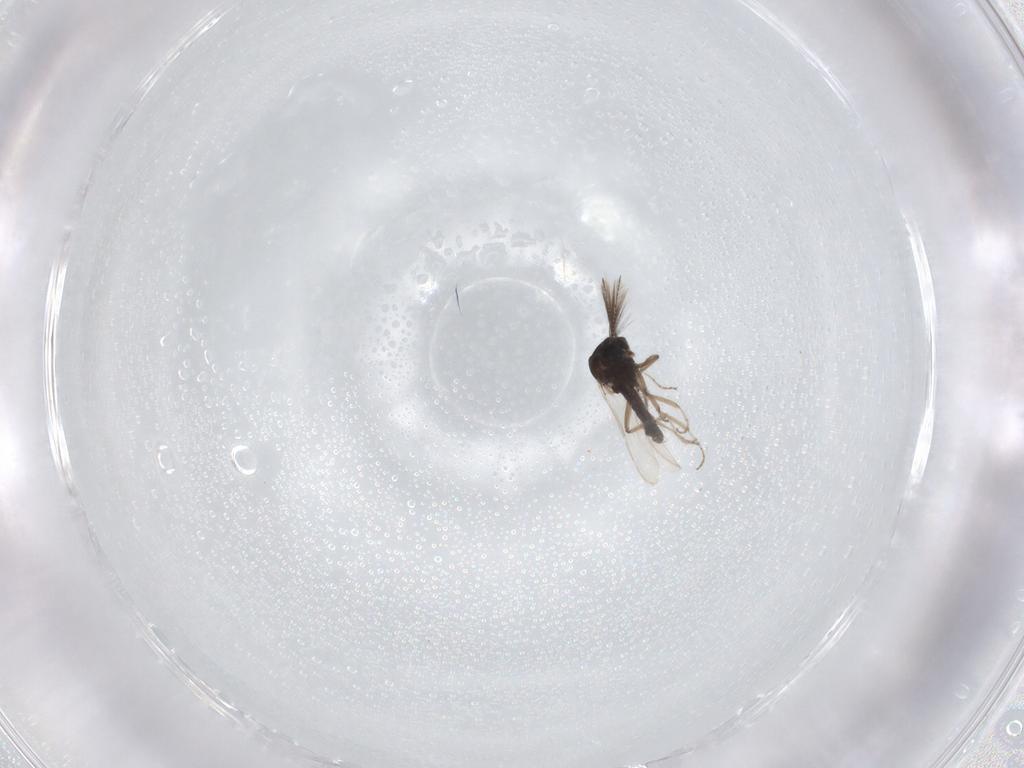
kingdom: Animalia
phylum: Arthropoda
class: Insecta
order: Diptera
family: Ceratopogonidae
